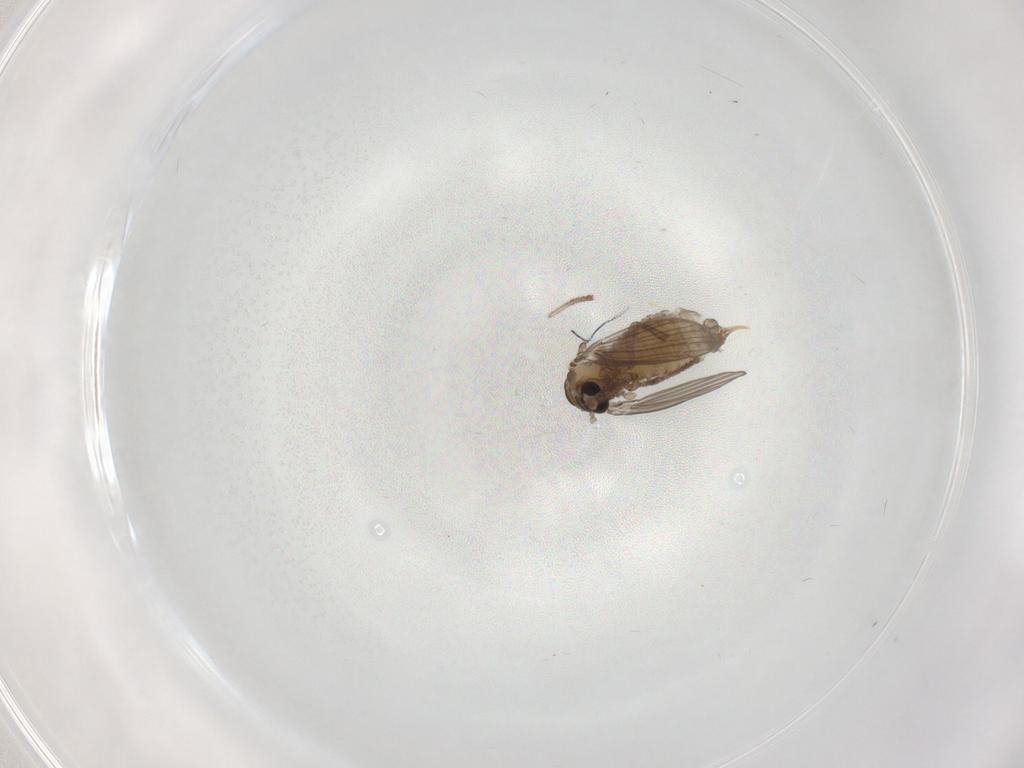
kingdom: Animalia
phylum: Arthropoda
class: Insecta
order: Diptera
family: Psychodidae
